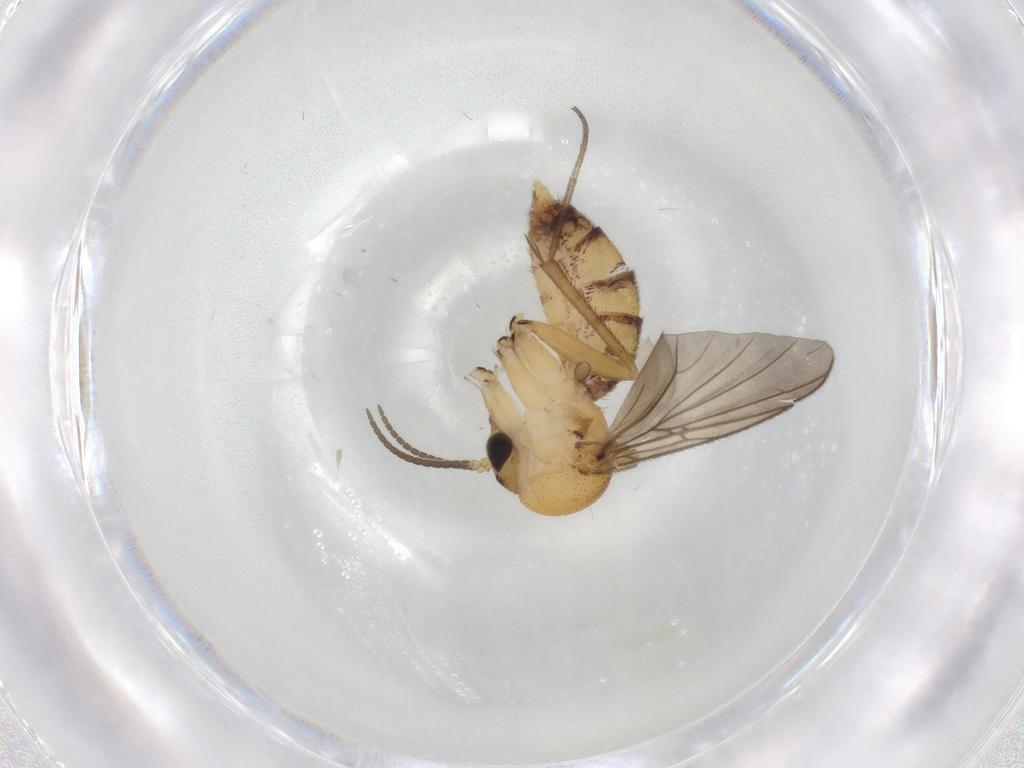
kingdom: Animalia
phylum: Arthropoda
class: Insecta
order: Diptera
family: Mycetophilidae
